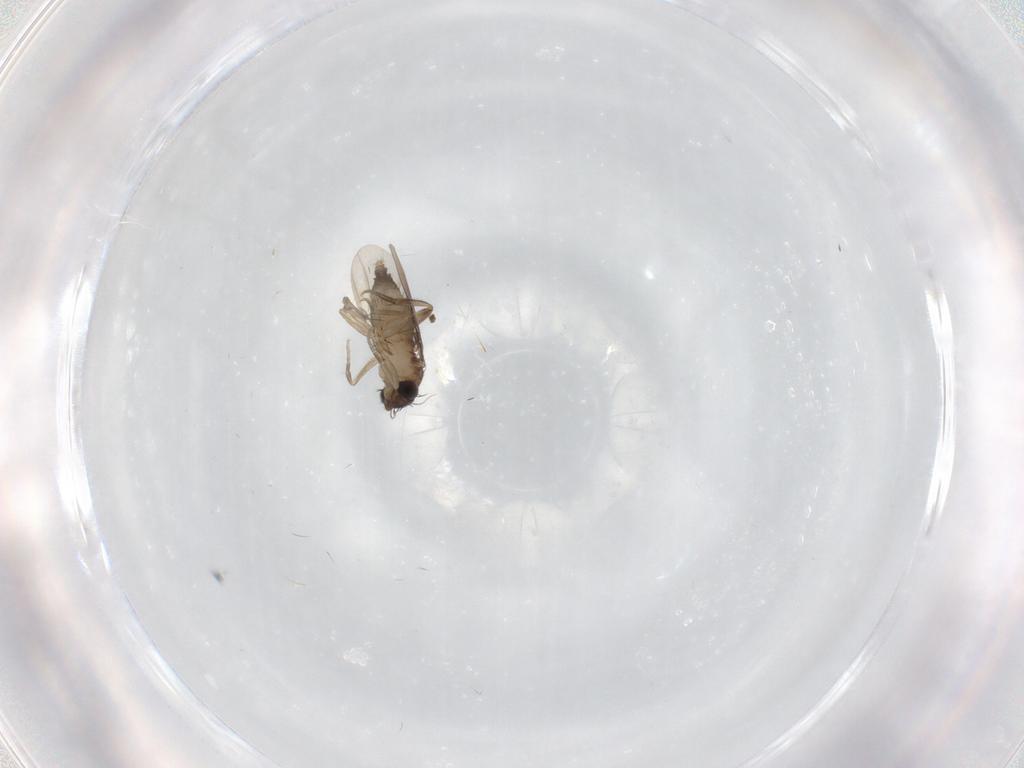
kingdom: Animalia
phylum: Arthropoda
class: Insecta
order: Diptera
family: Phoridae
